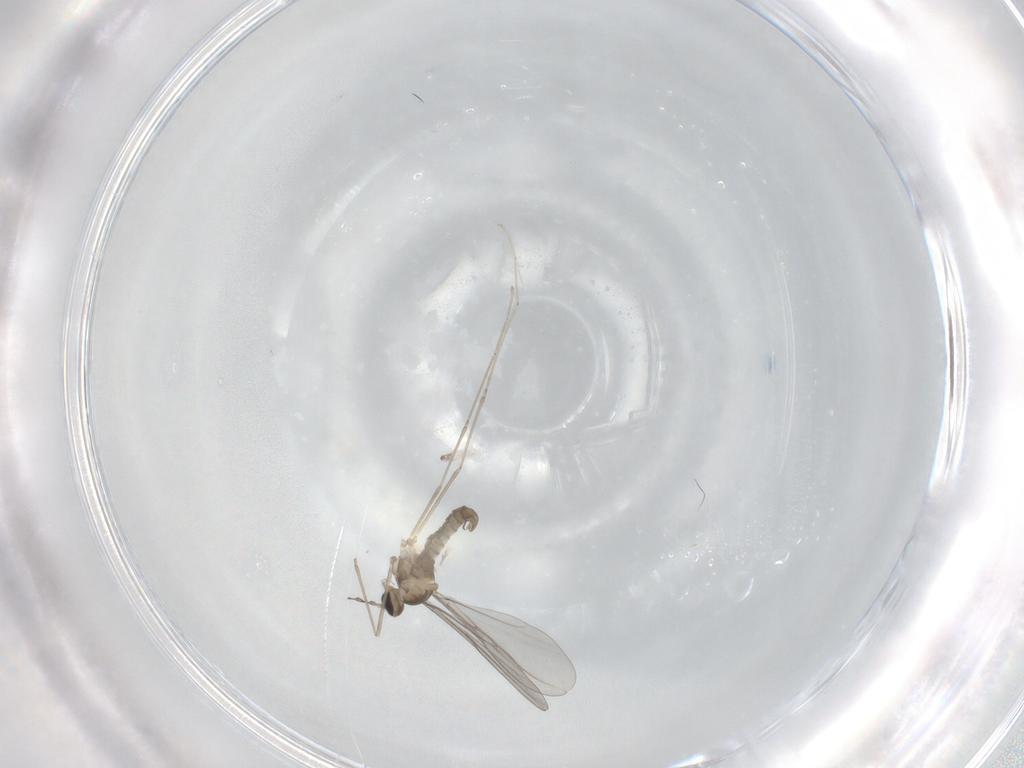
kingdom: Animalia
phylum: Arthropoda
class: Insecta
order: Diptera
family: Cecidomyiidae
